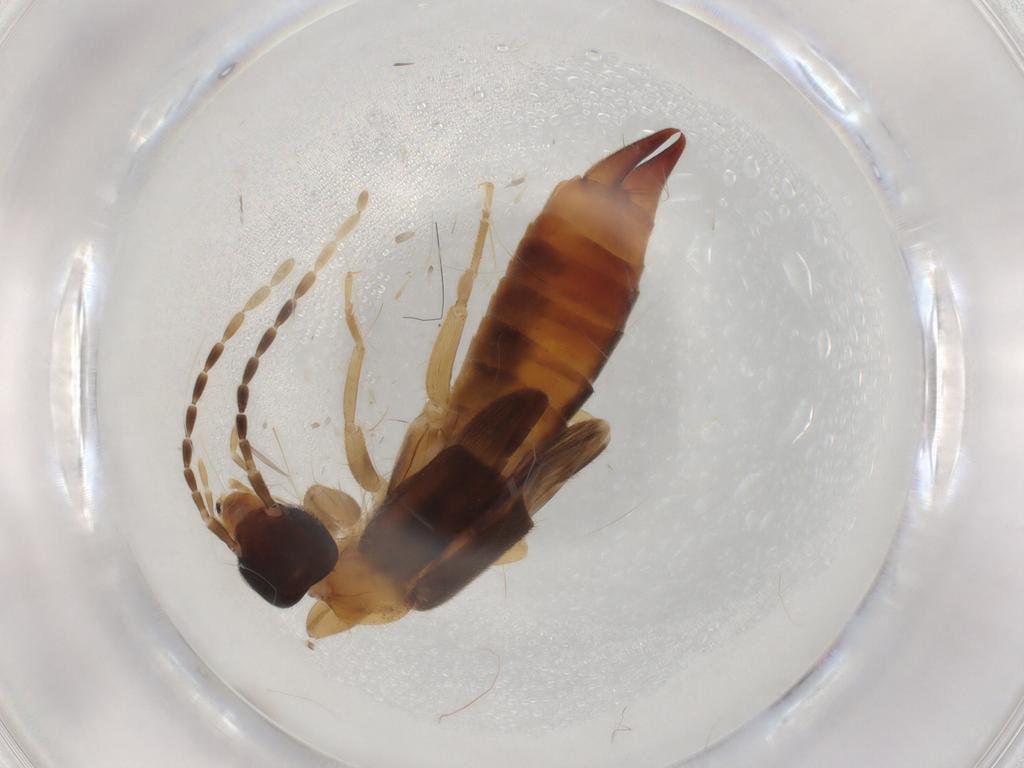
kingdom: Animalia
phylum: Arthropoda
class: Insecta
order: Dermaptera
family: Spongiphoridae
